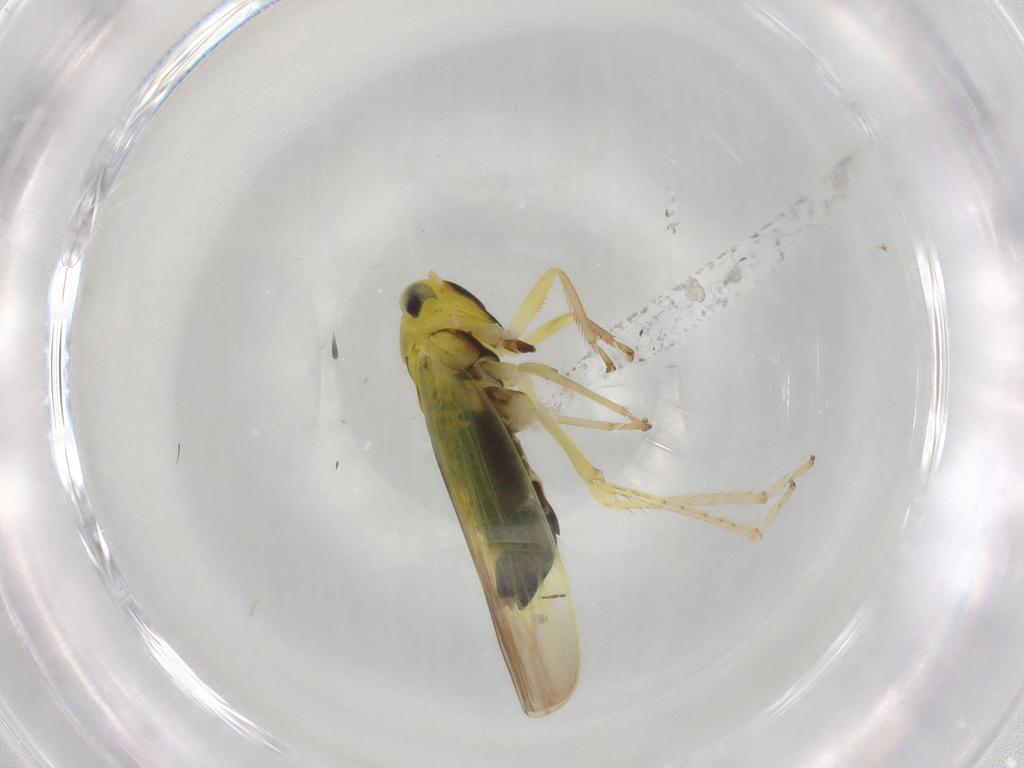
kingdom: Animalia
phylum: Arthropoda
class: Insecta
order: Hemiptera
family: Cicadellidae
